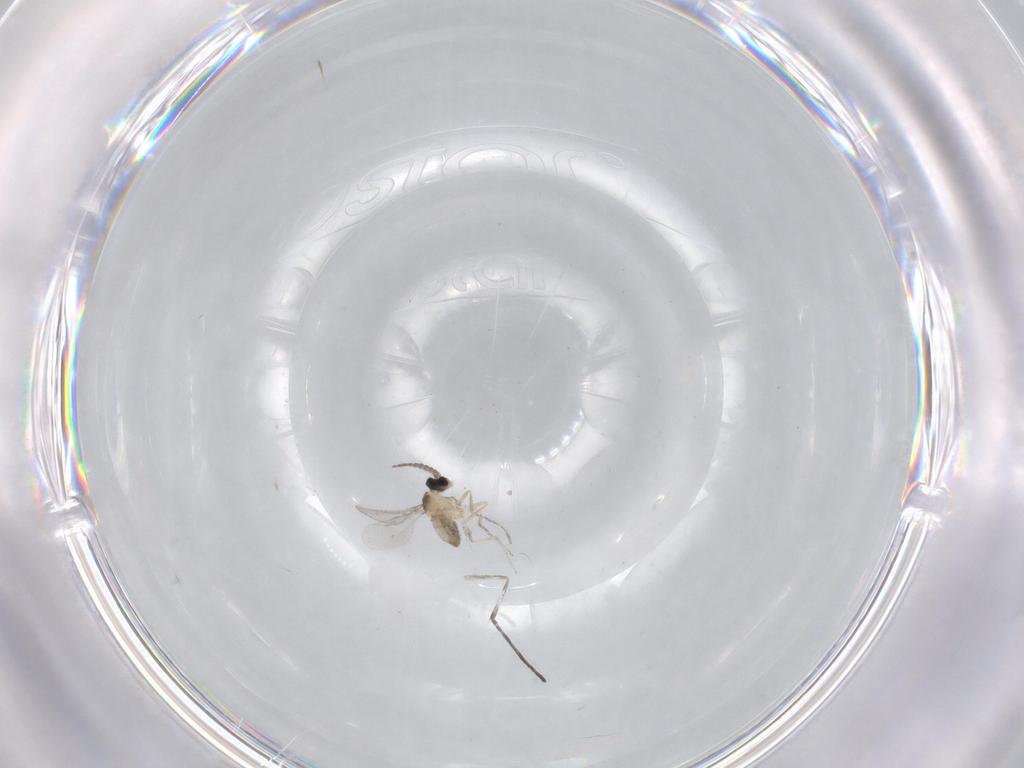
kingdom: Animalia
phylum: Arthropoda
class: Insecta
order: Diptera
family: Cecidomyiidae
